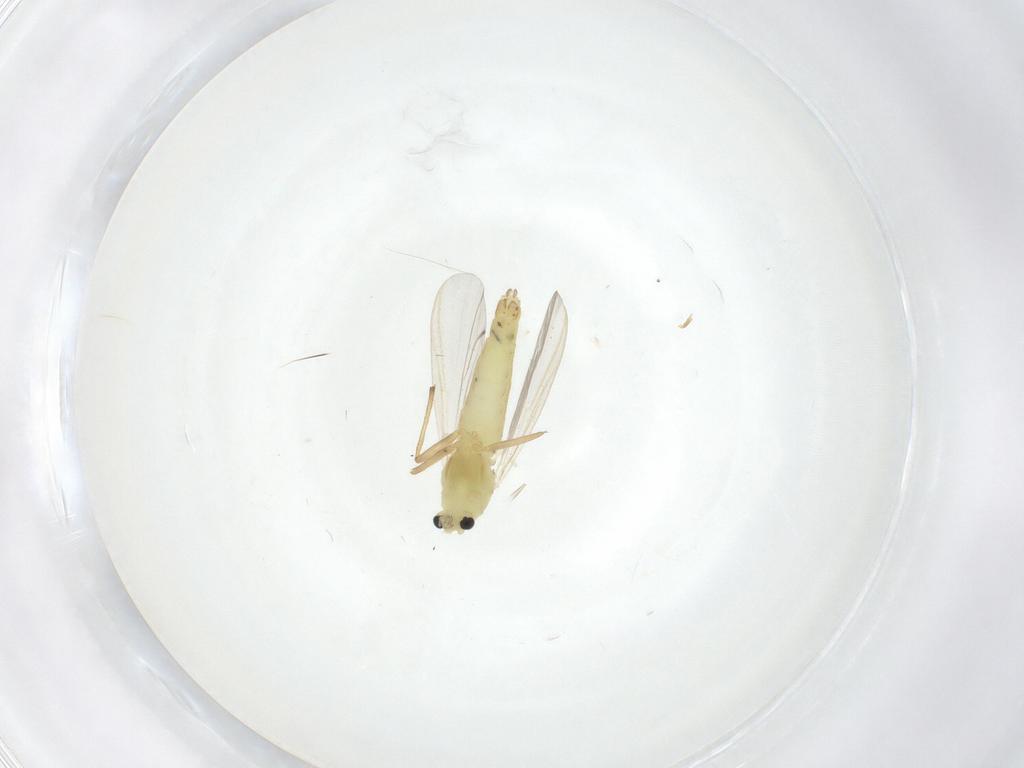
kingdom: Animalia
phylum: Arthropoda
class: Insecta
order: Diptera
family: Chironomidae
